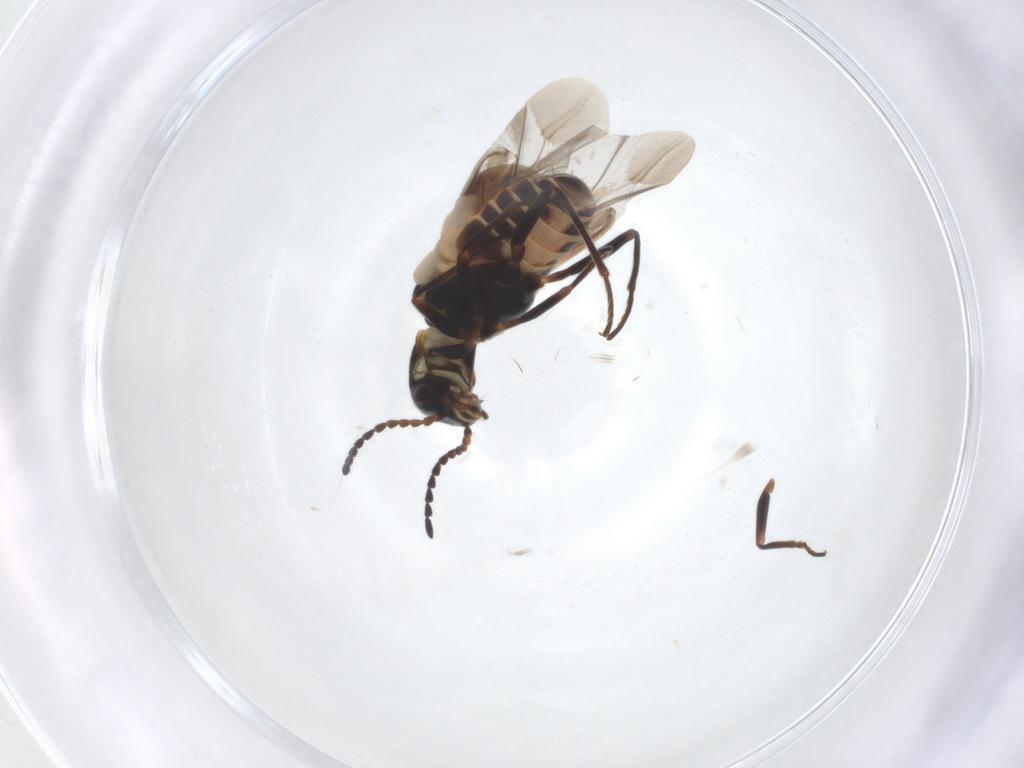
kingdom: Animalia
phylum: Arthropoda
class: Insecta
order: Coleoptera
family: Melyridae
